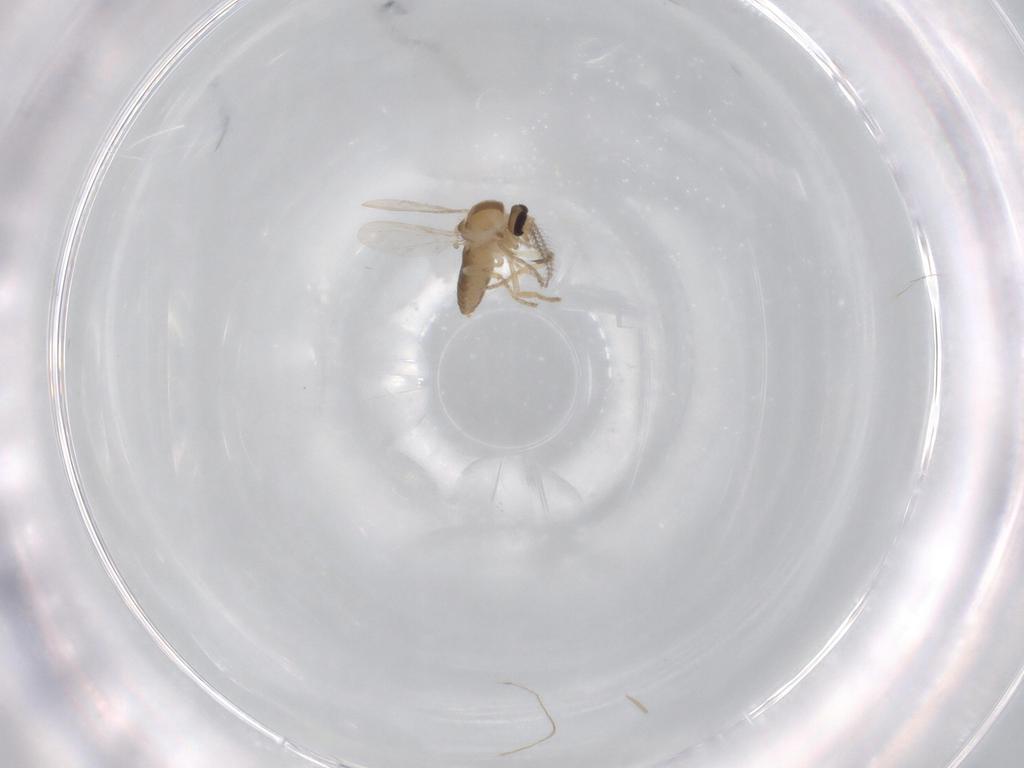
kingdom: Animalia
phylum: Arthropoda
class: Insecta
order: Diptera
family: Ceratopogonidae
